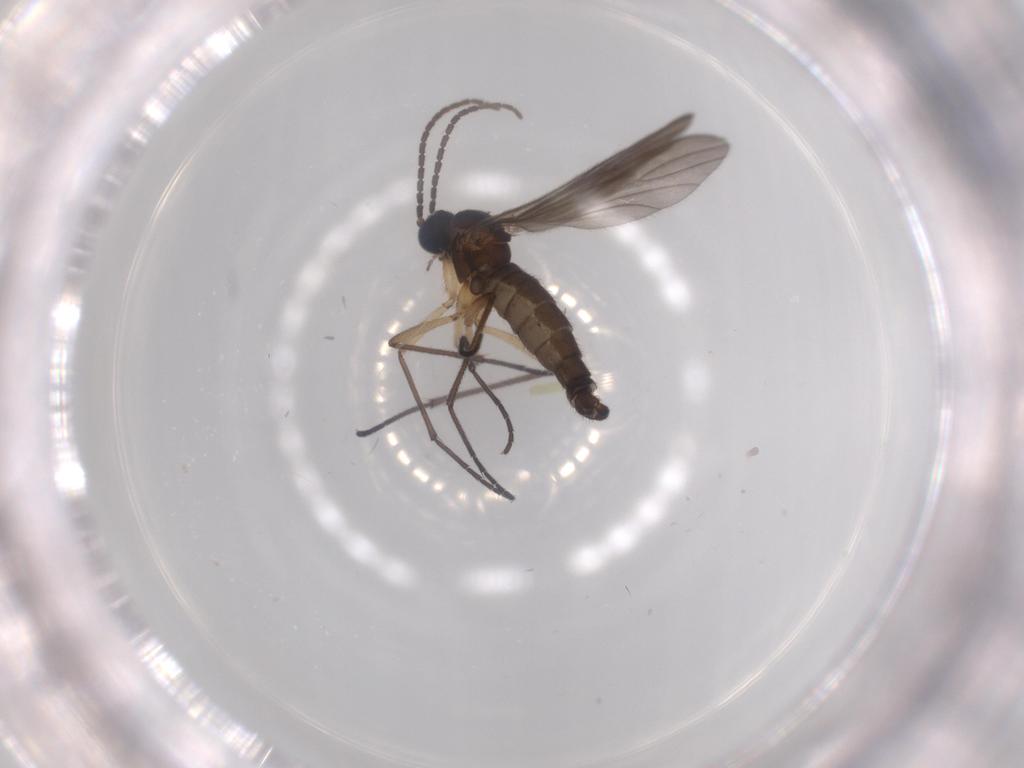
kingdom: Animalia
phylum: Arthropoda
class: Insecta
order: Diptera
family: Sciaridae
